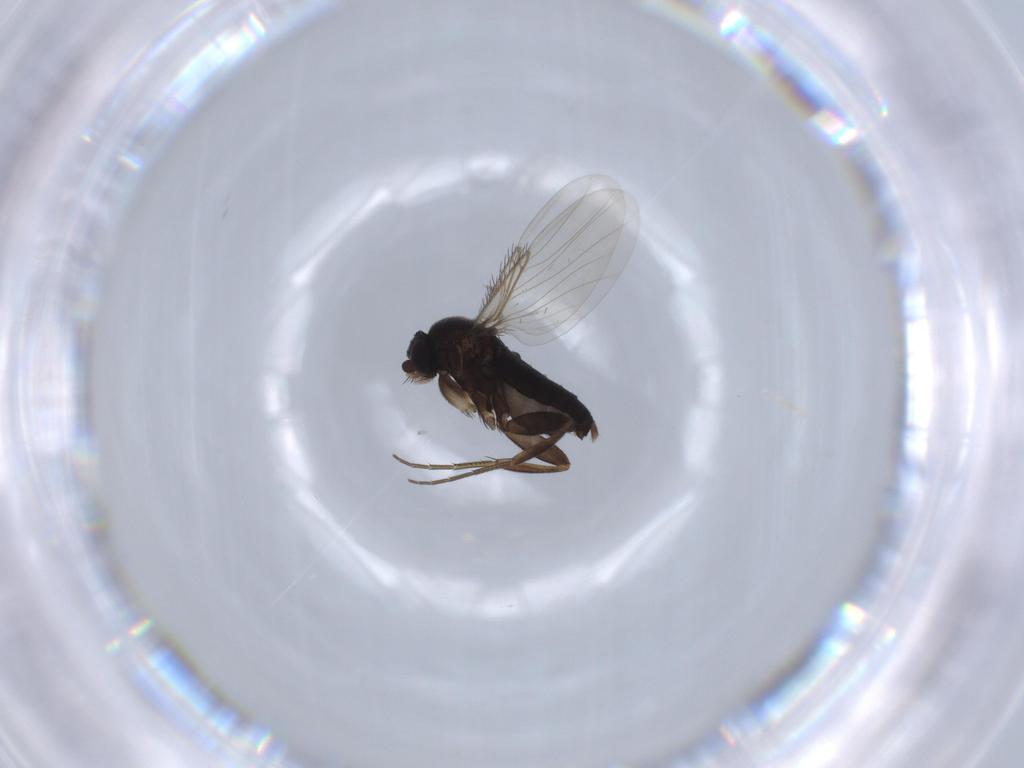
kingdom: Animalia
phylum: Arthropoda
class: Insecta
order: Diptera
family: Phoridae
